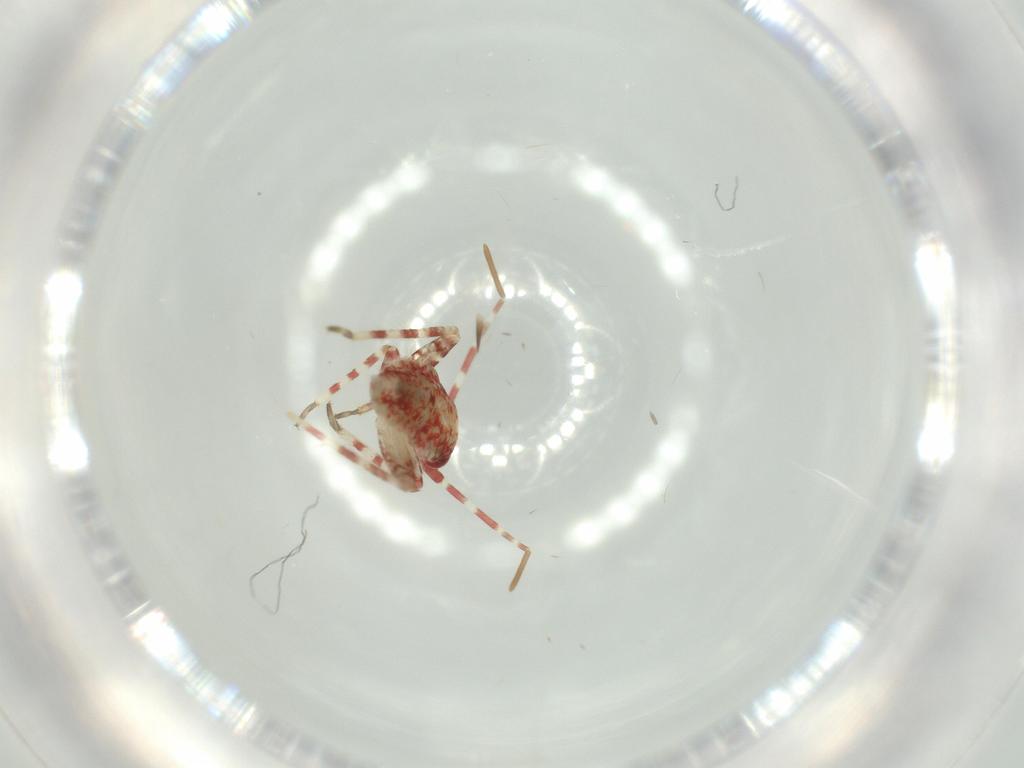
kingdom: Animalia
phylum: Arthropoda
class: Insecta
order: Hemiptera
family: Miridae
